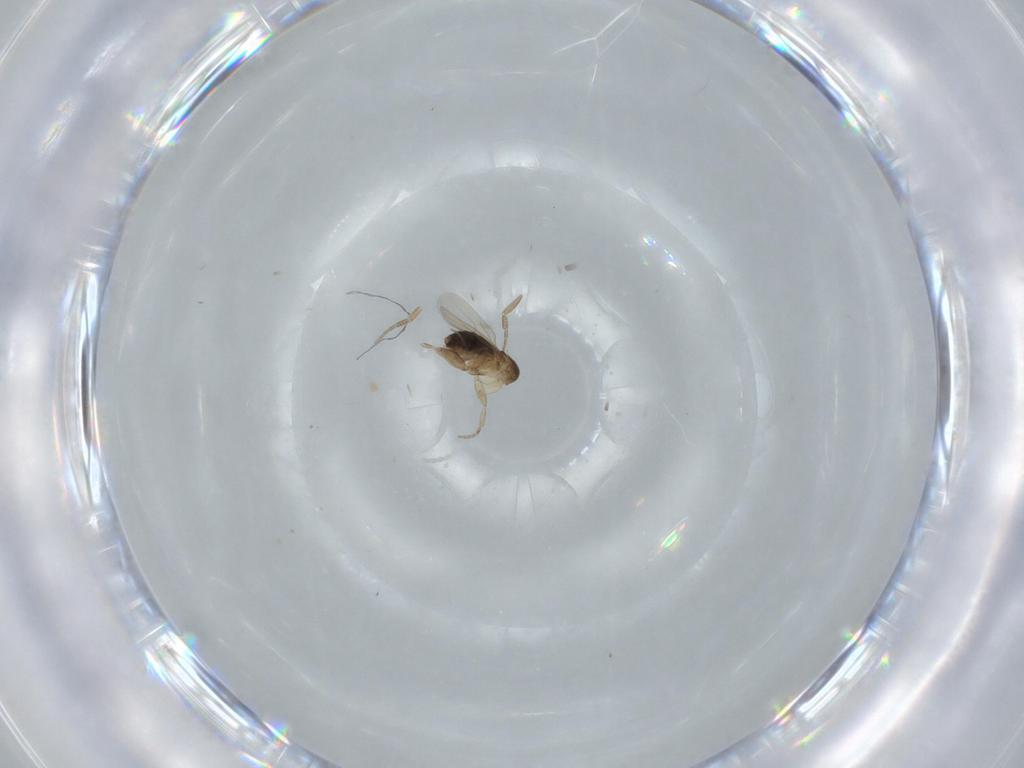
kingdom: Animalia
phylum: Arthropoda
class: Insecta
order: Diptera
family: Phoridae
